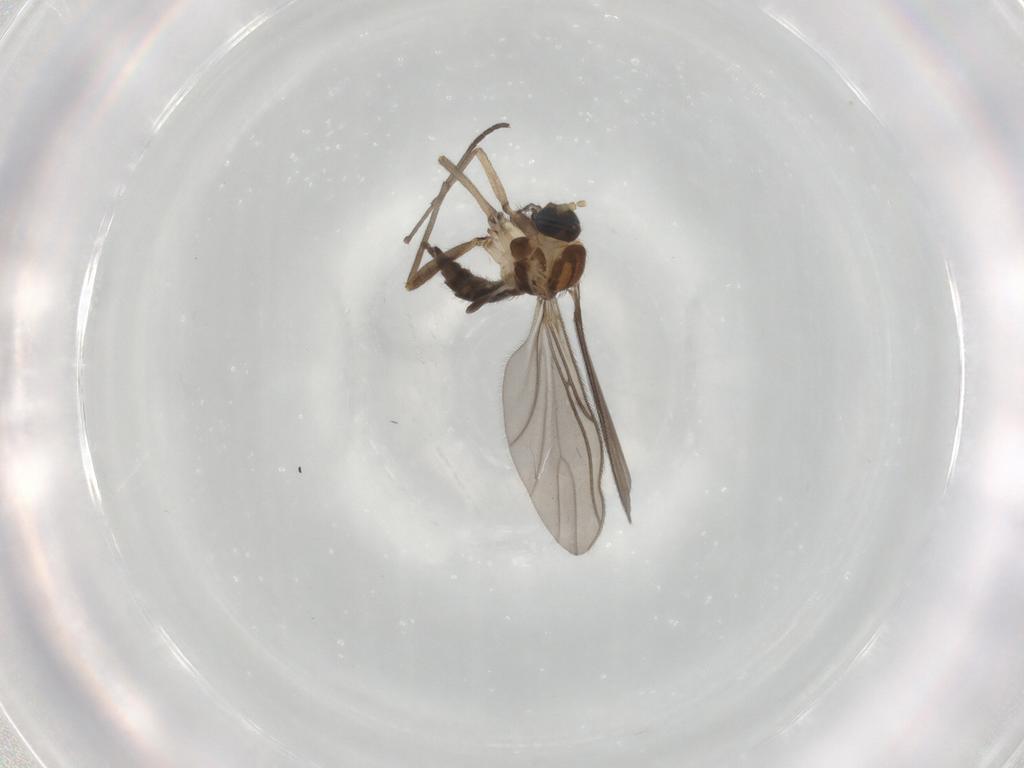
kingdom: Animalia
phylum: Arthropoda
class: Insecta
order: Diptera
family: Sciaridae
